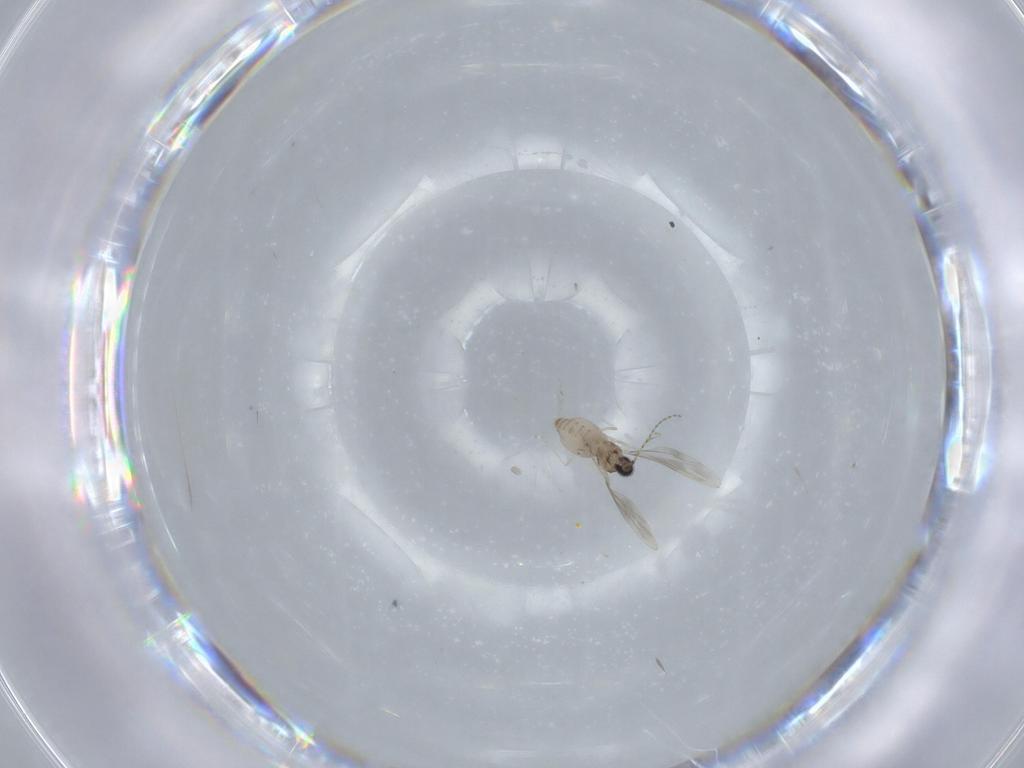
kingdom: Animalia
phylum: Arthropoda
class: Insecta
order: Diptera
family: Cecidomyiidae
